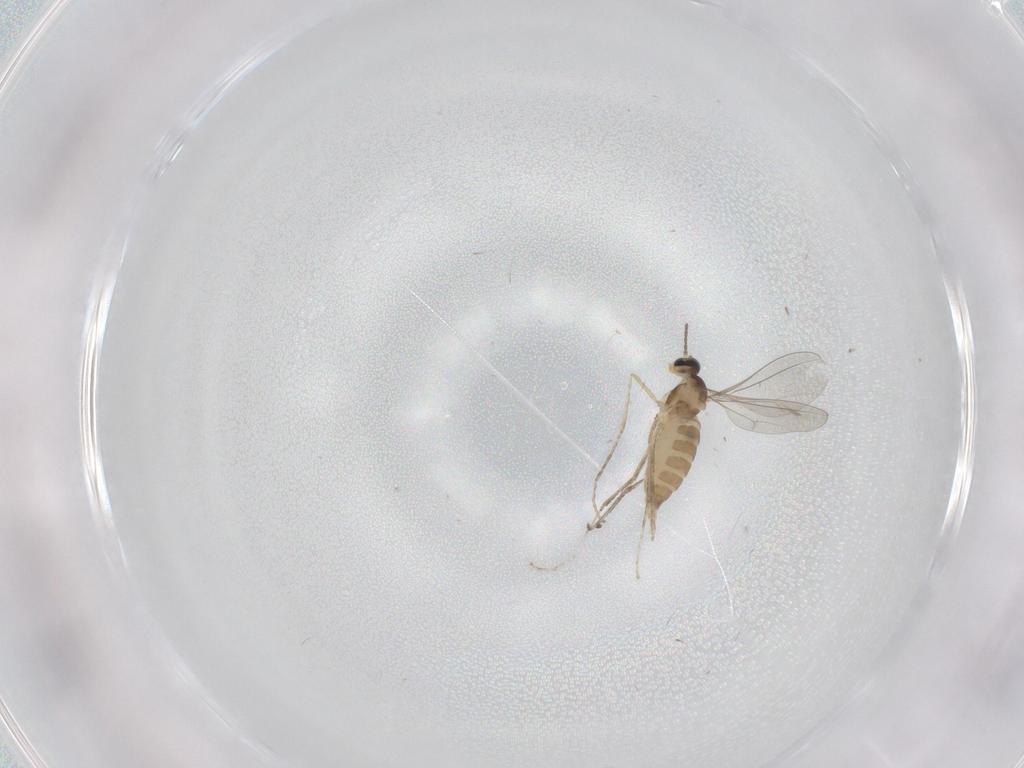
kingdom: Animalia
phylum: Arthropoda
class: Insecta
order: Diptera
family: Cecidomyiidae
